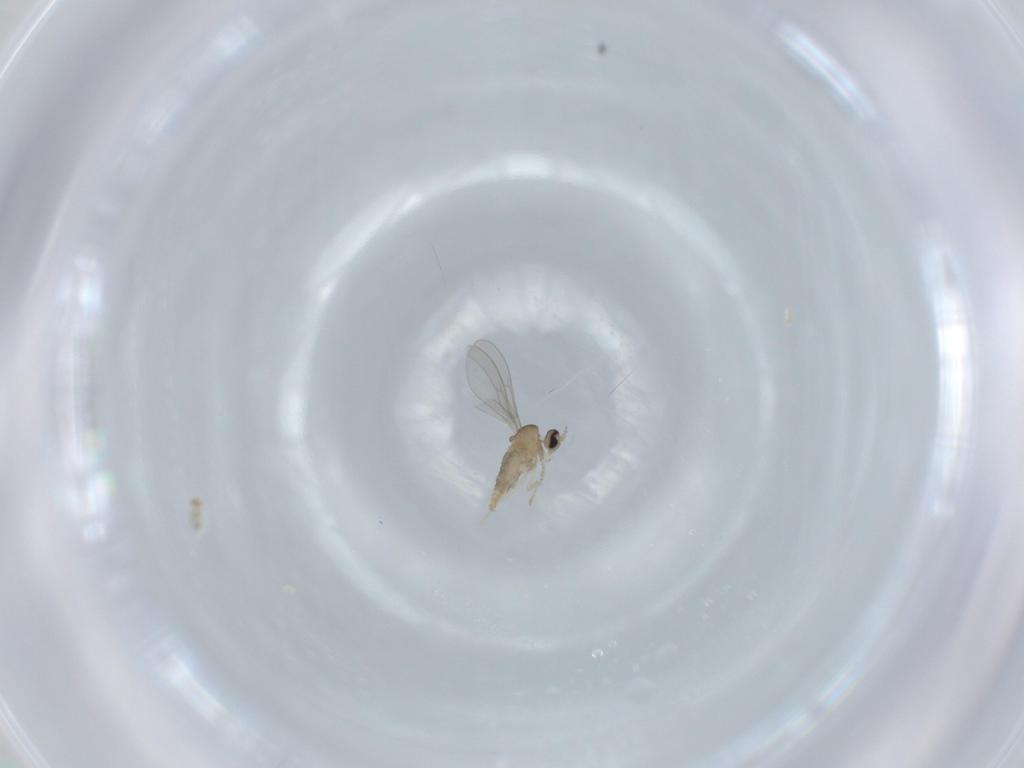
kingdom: Animalia
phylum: Arthropoda
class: Insecta
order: Diptera
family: Cecidomyiidae
